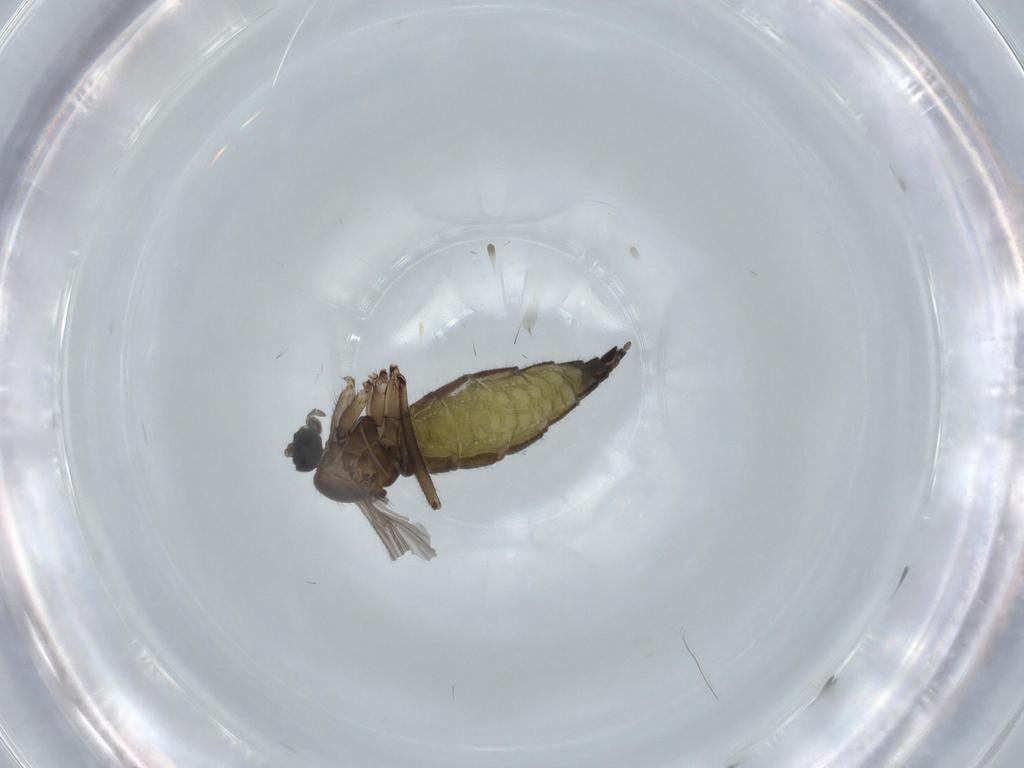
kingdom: Animalia
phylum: Arthropoda
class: Insecta
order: Diptera
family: Sciaridae
